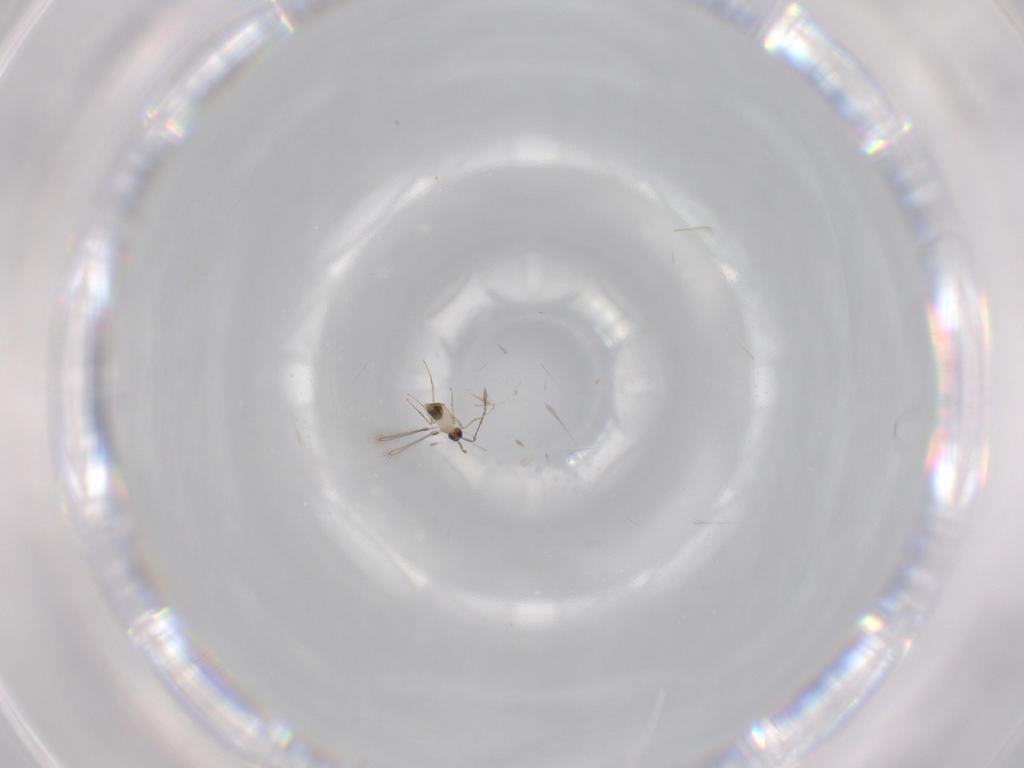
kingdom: Animalia
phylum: Arthropoda
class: Insecta
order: Hymenoptera
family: Mymaridae
